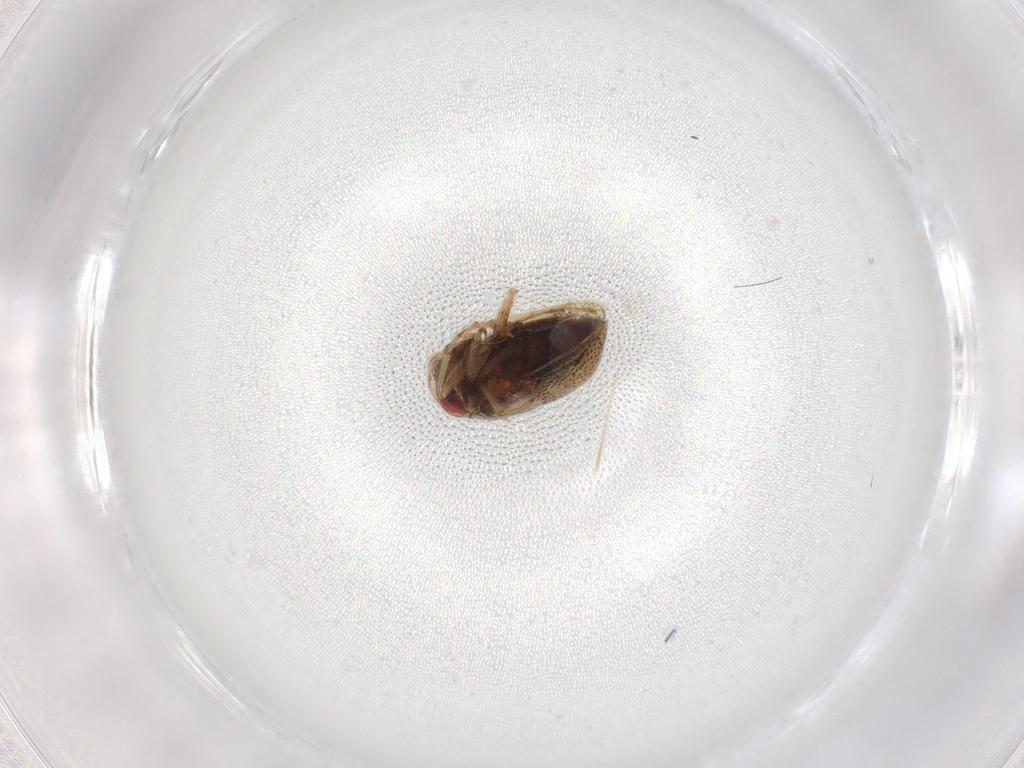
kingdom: Animalia
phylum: Arthropoda
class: Insecta
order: Hemiptera
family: Pleidae
